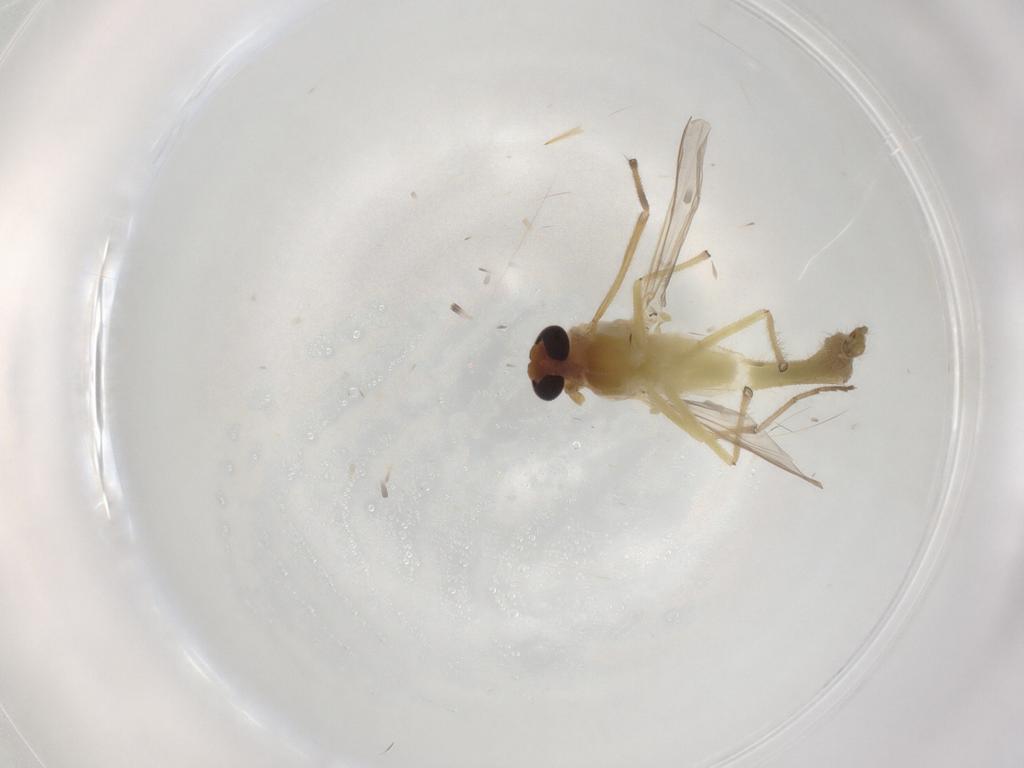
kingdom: Animalia
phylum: Arthropoda
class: Insecta
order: Diptera
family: Chironomidae
